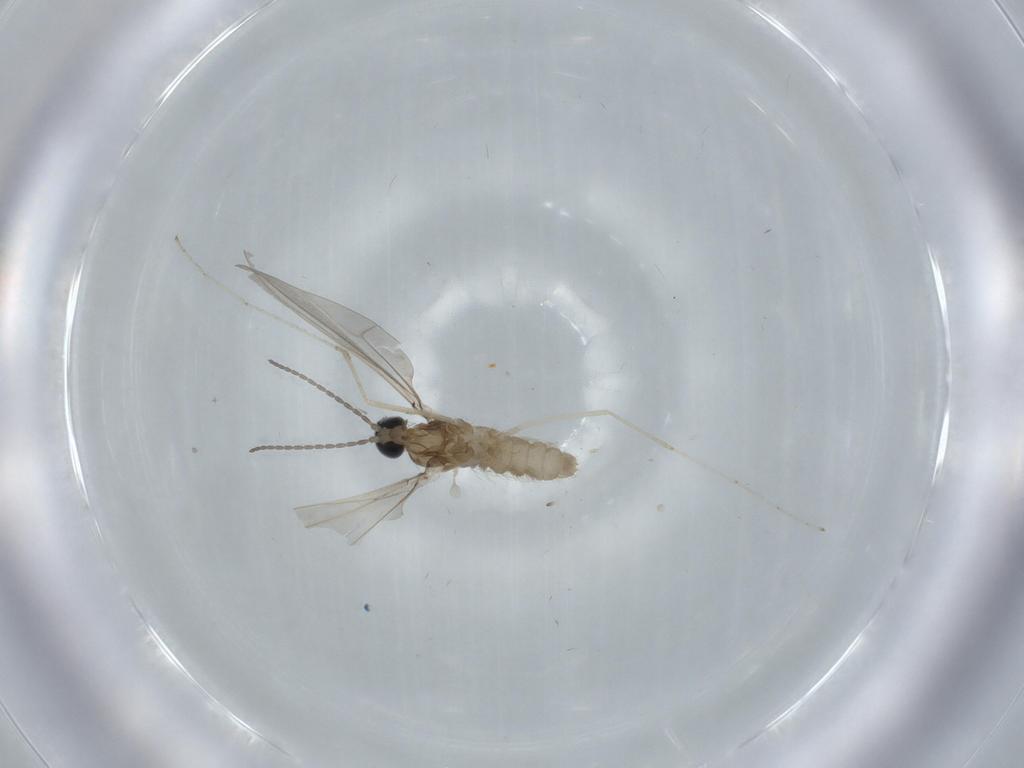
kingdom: Animalia
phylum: Arthropoda
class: Insecta
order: Diptera
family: Cecidomyiidae
